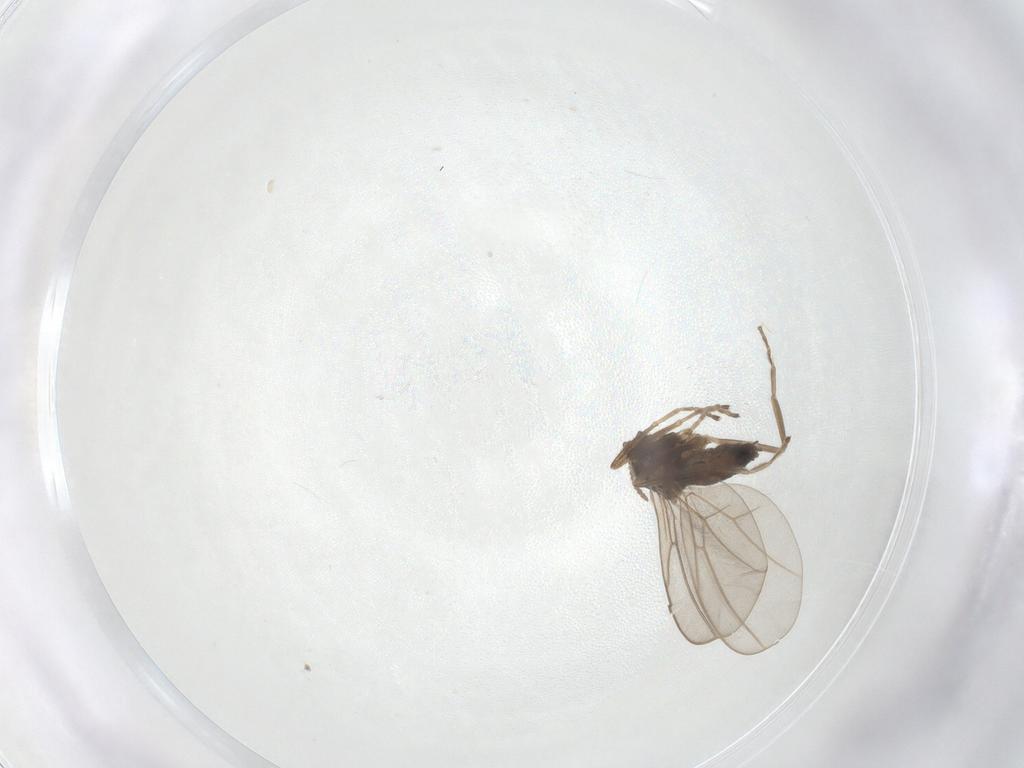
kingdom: Animalia
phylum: Arthropoda
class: Insecta
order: Diptera
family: Cecidomyiidae
